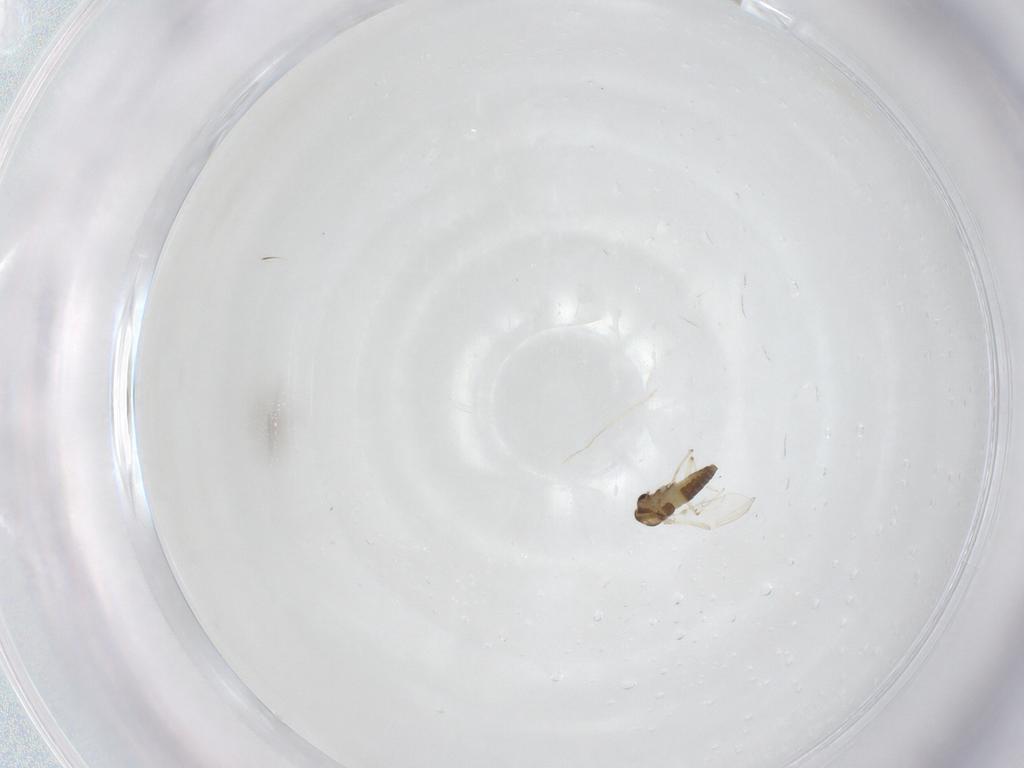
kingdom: Animalia
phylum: Arthropoda
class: Insecta
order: Diptera
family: Chironomidae
